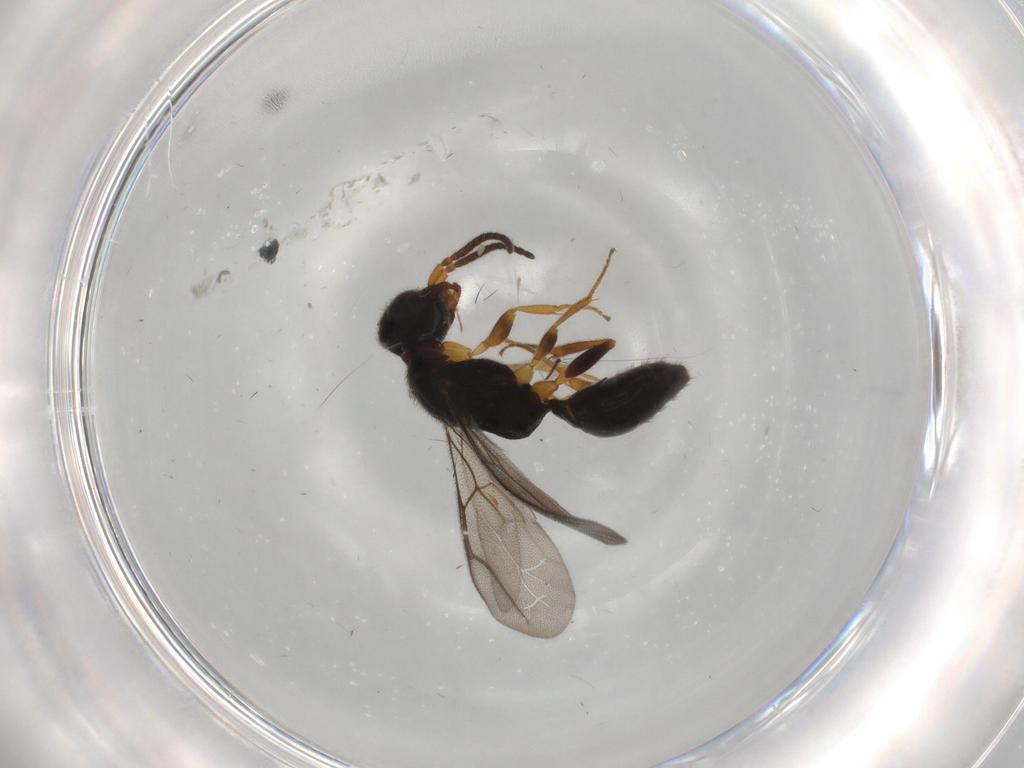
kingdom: Animalia
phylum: Arthropoda
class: Insecta
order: Hymenoptera
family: Bethylidae
